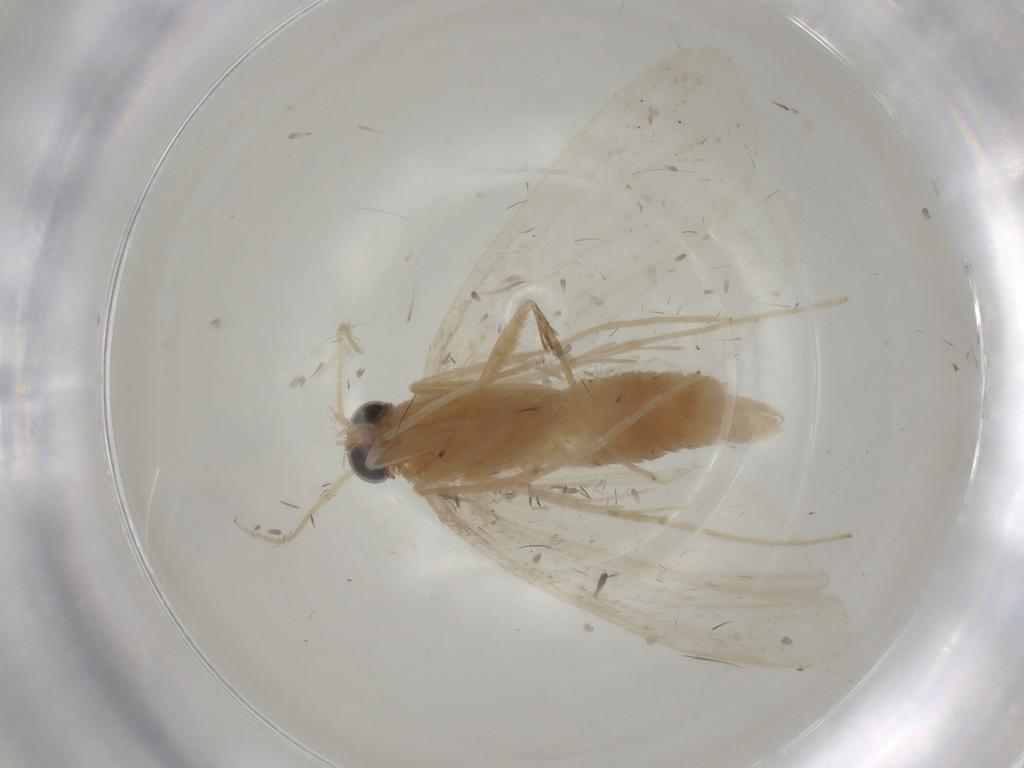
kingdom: Animalia
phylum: Arthropoda
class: Insecta
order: Lepidoptera
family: Crambidae
